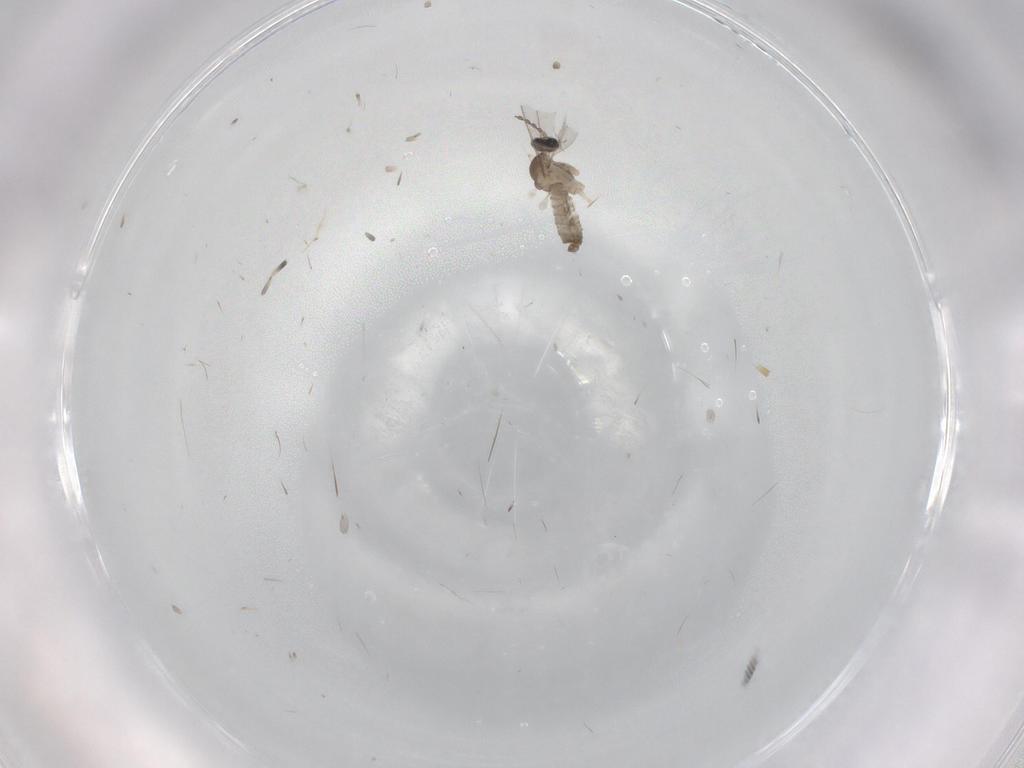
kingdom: Animalia
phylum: Arthropoda
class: Insecta
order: Diptera
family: Cecidomyiidae
